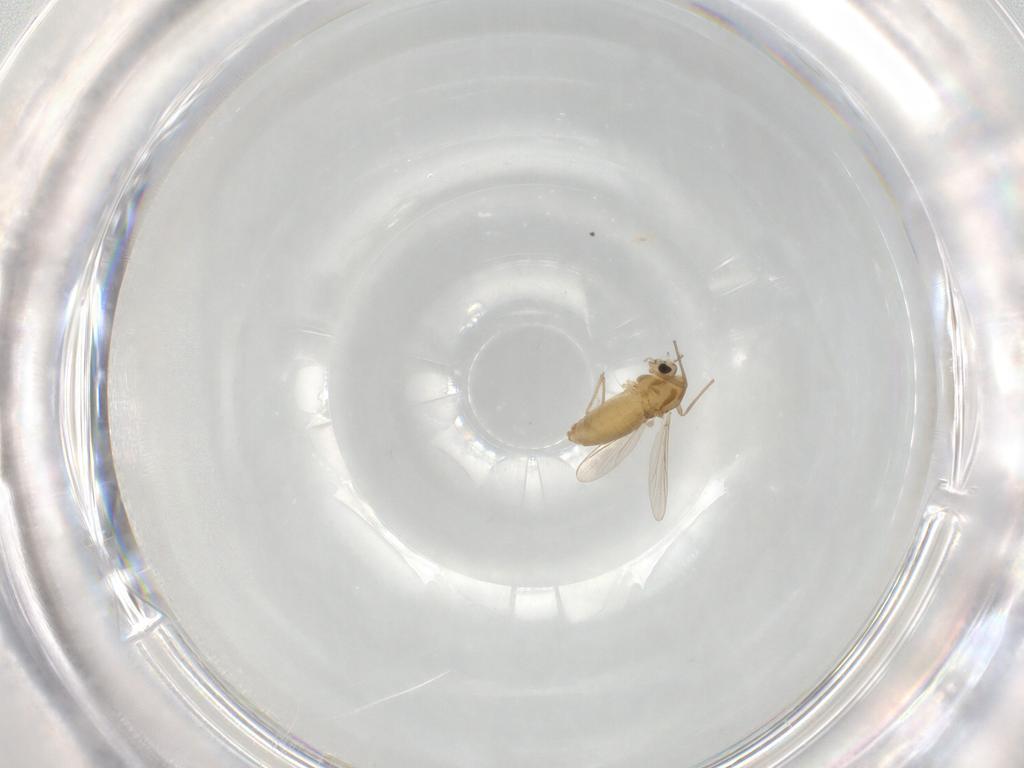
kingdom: Animalia
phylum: Arthropoda
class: Insecta
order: Diptera
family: Chironomidae
